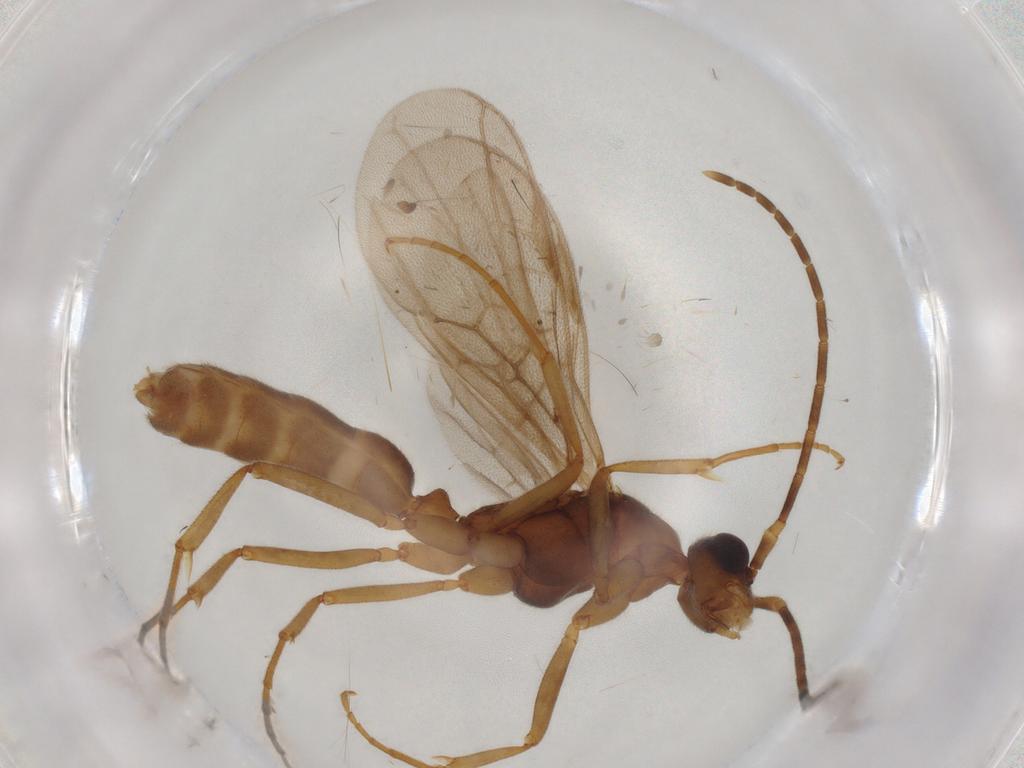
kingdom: Animalia
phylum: Arthropoda
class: Insecta
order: Hymenoptera
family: Formicidae
